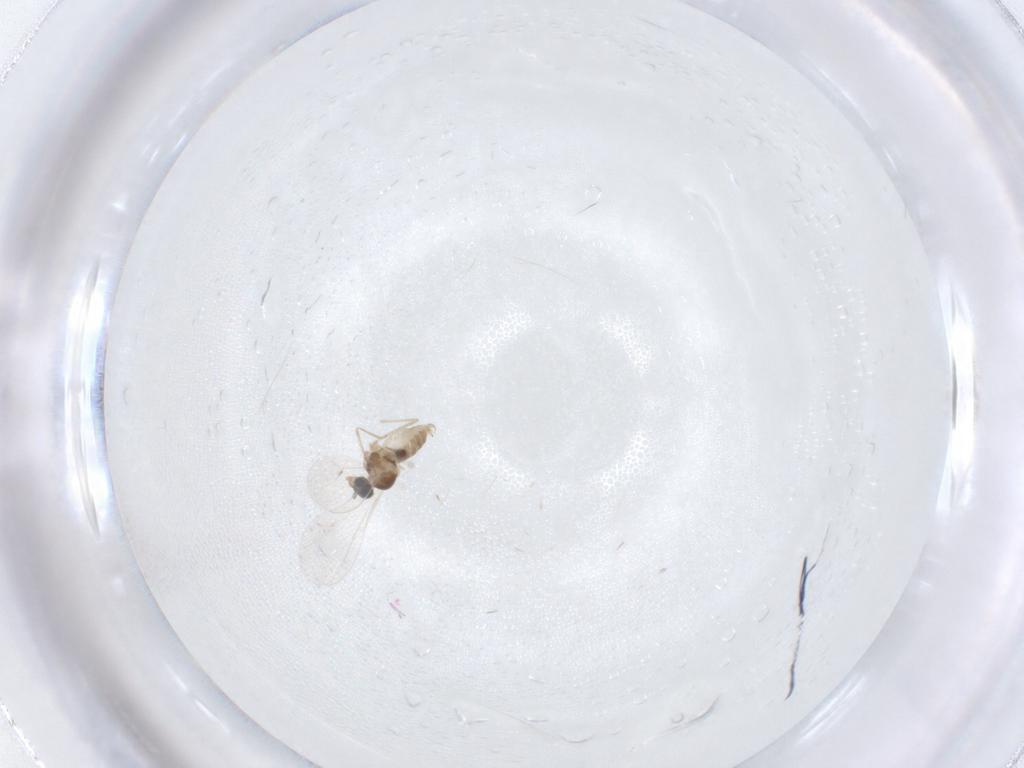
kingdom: Animalia
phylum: Arthropoda
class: Insecta
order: Diptera
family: Cecidomyiidae
